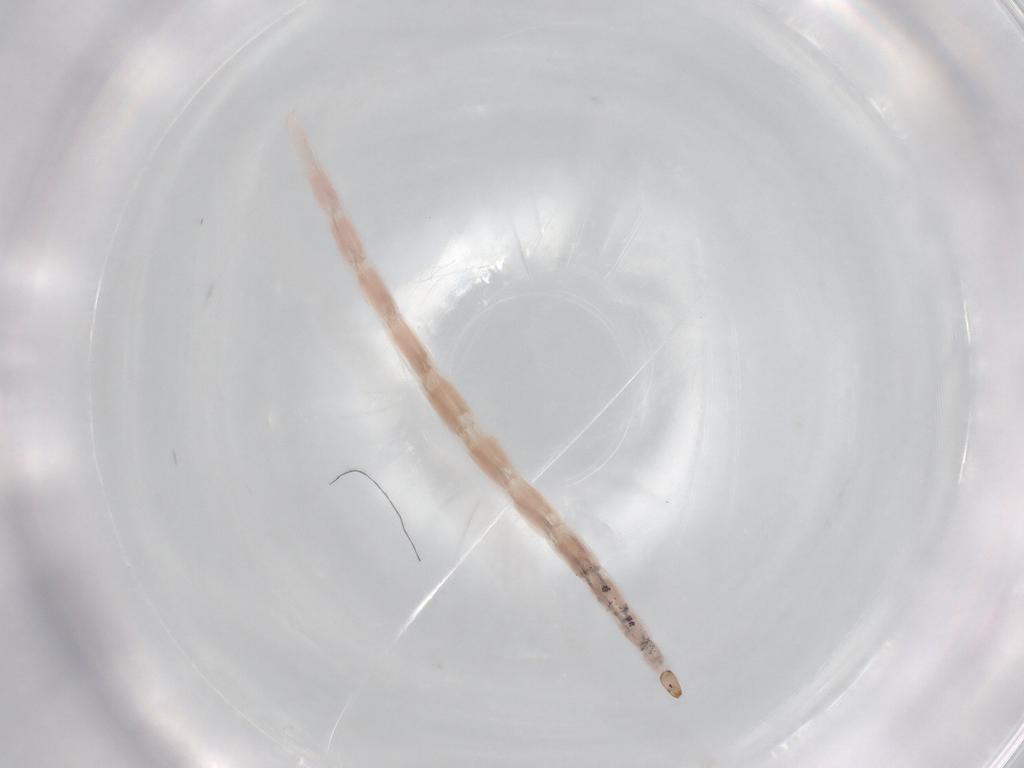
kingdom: Animalia
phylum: Arthropoda
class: Insecta
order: Diptera
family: Ceratopogonidae
